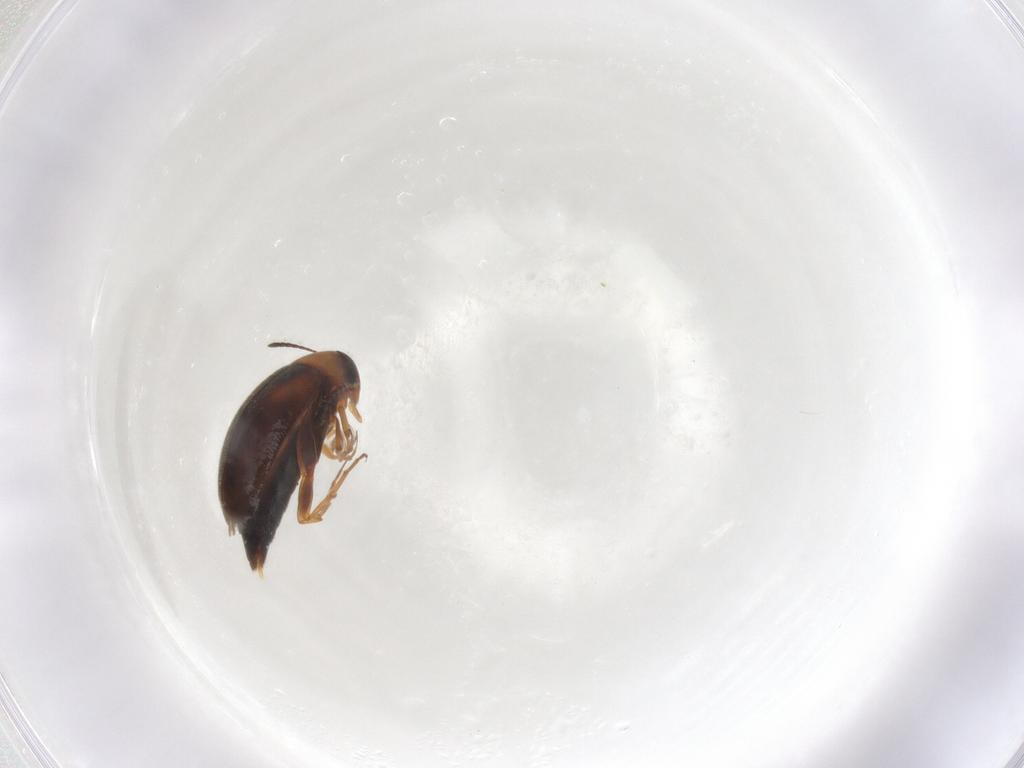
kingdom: Animalia
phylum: Arthropoda
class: Insecta
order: Coleoptera
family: Scraptiidae
